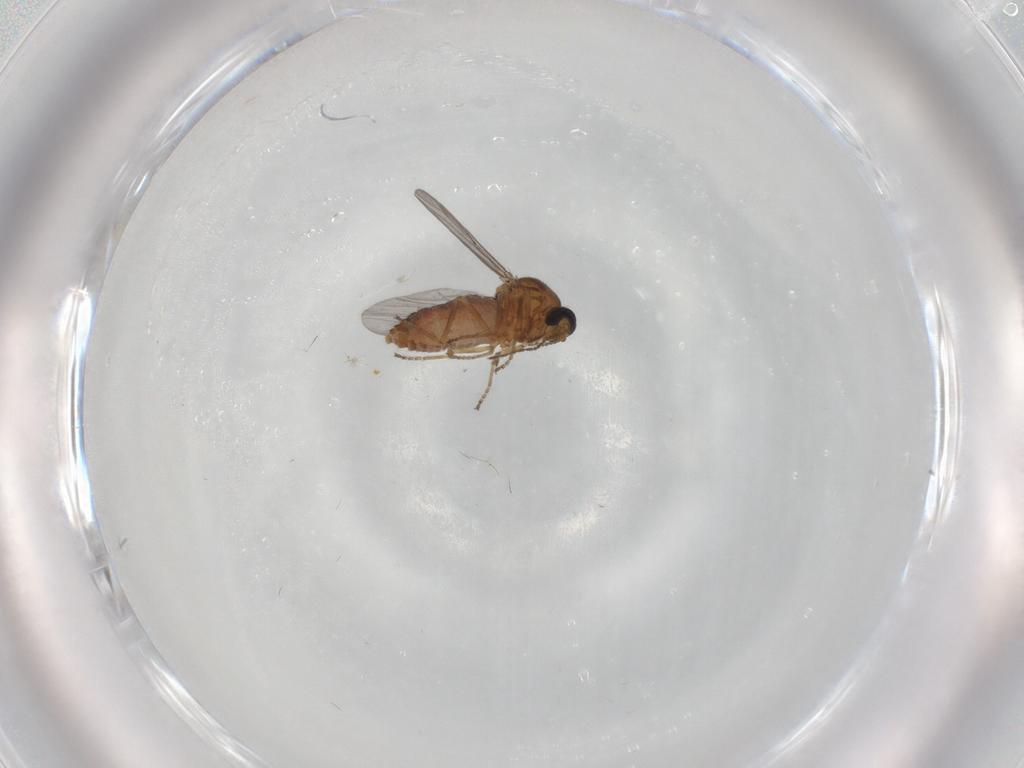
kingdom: Animalia
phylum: Arthropoda
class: Insecta
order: Diptera
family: Ceratopogonidae
